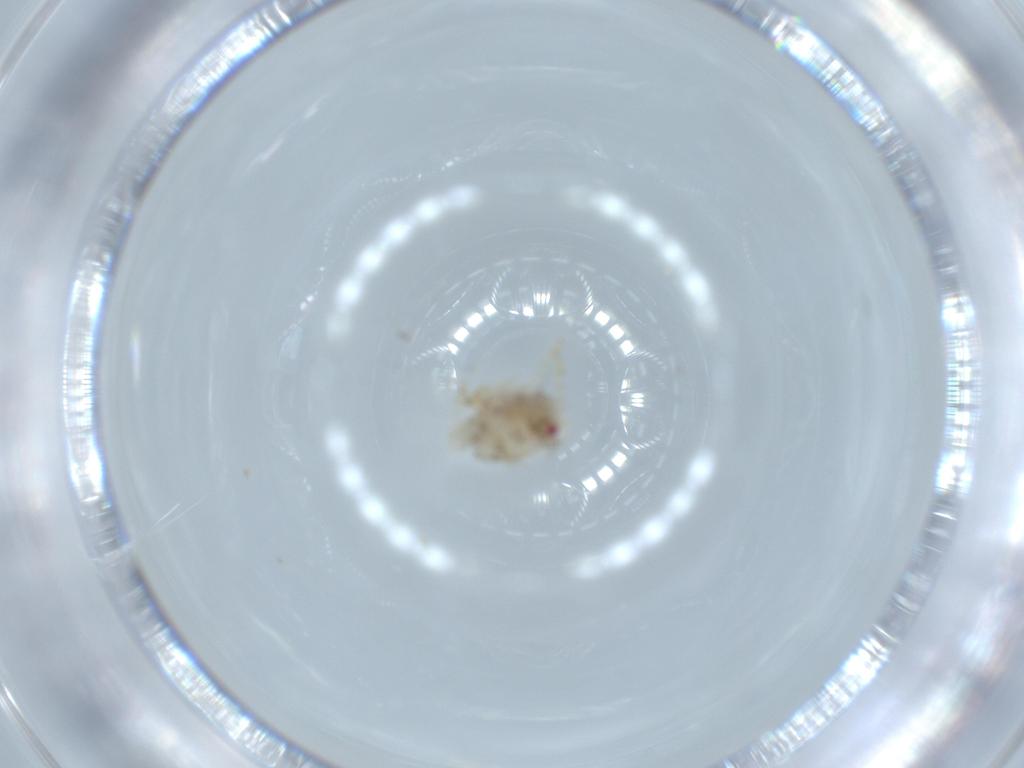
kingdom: Animalia
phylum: Arthropoda
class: Insecta
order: Hemiptera
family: Acanaloniidae
